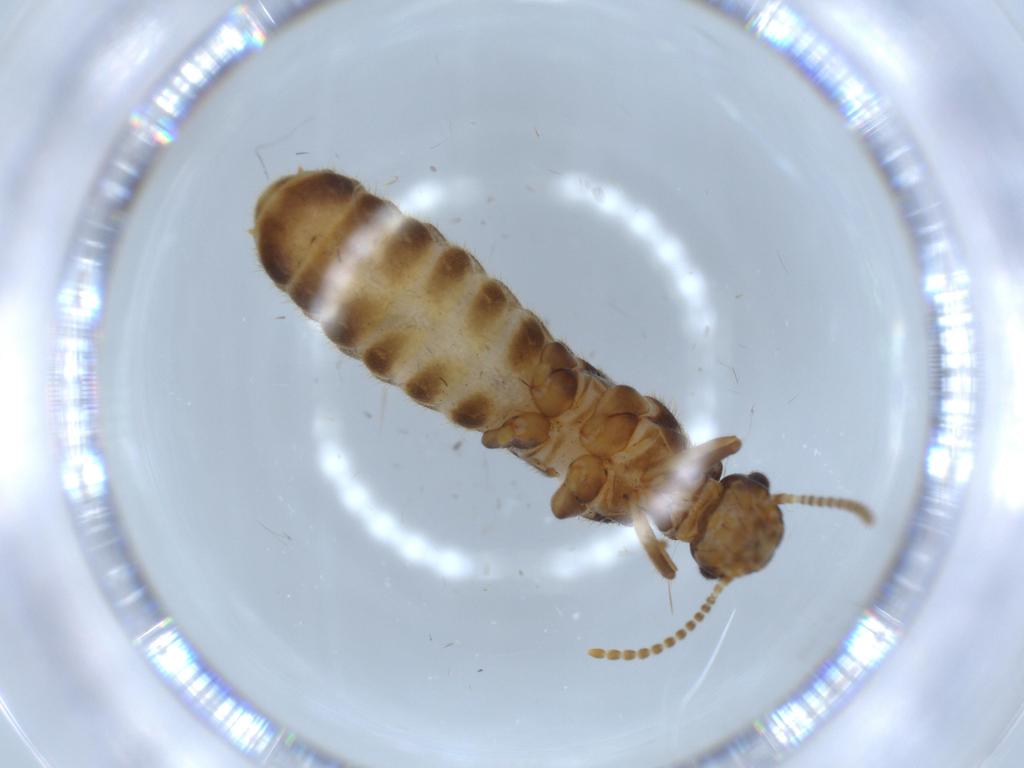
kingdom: Animalia
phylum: Arthropoda
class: Insecta
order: Blattodea
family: Termitidae
